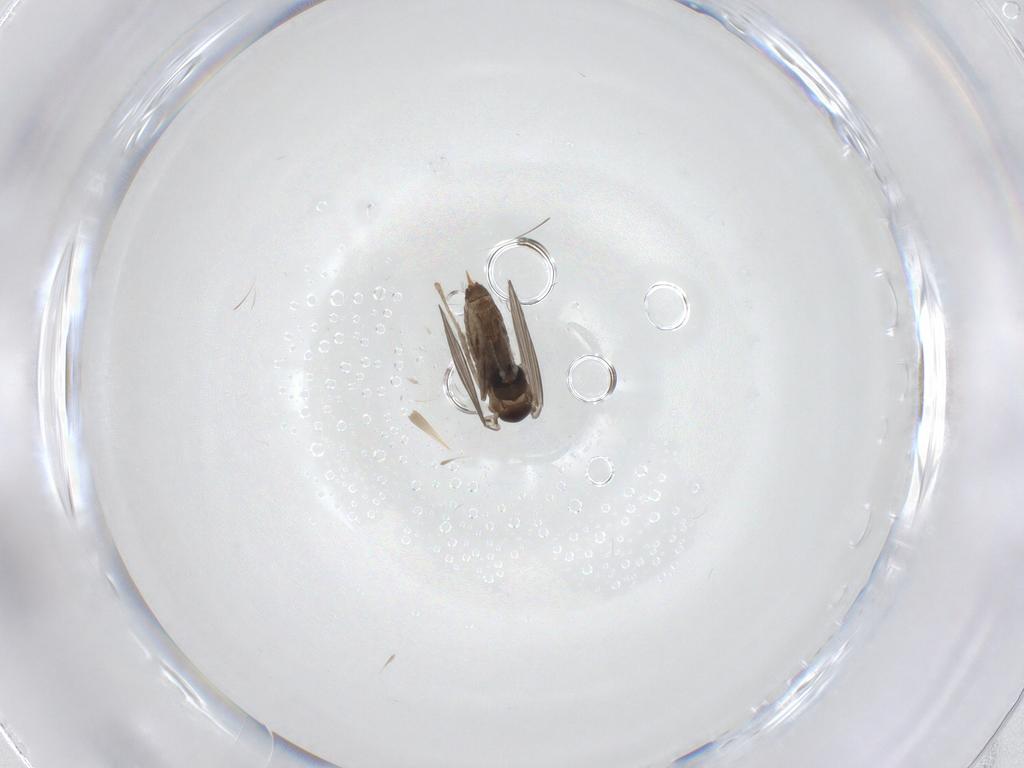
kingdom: Animalia
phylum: Arthropoda
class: Insecta
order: Diptera
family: Psychodidae
